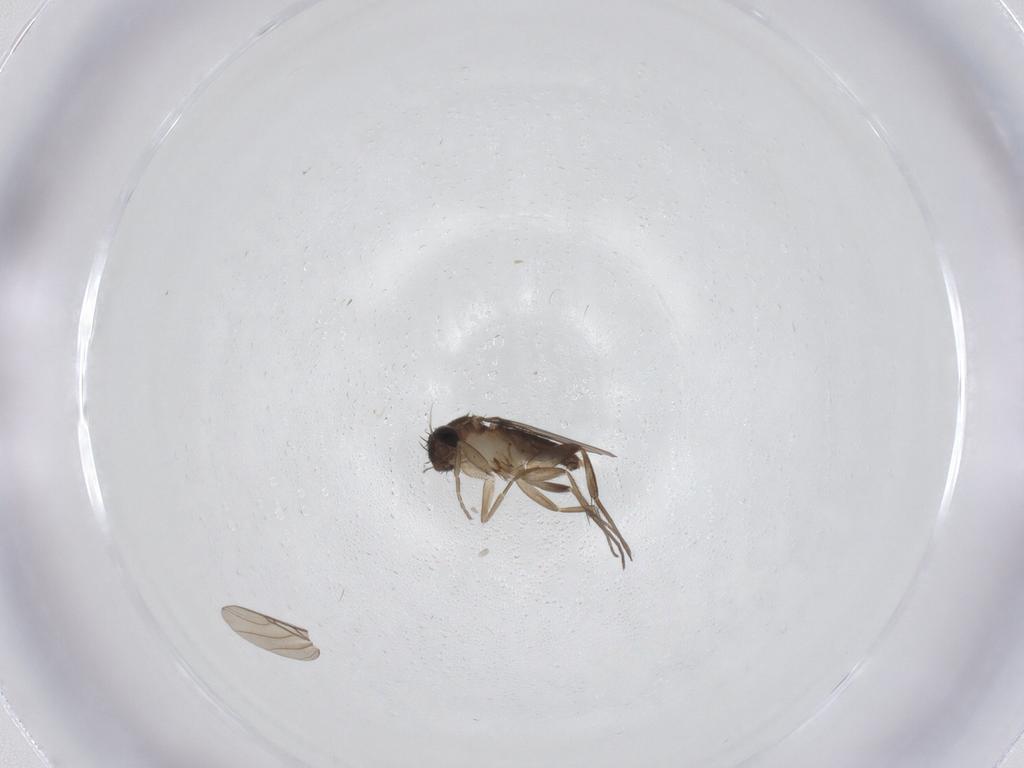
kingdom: Animalia
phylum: Arthropoda
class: Insecta
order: Diptera
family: Phoridae
